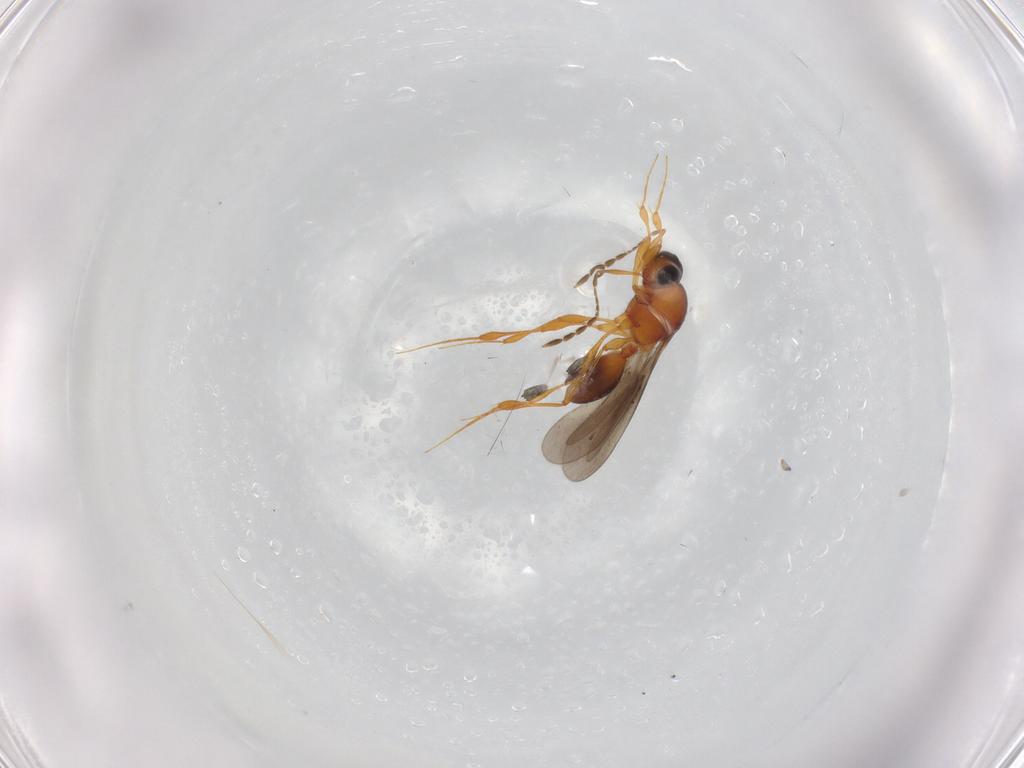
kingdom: Animalia
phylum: Arthropoda
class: Insecta
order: Hymenoptera
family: Platygastridae
